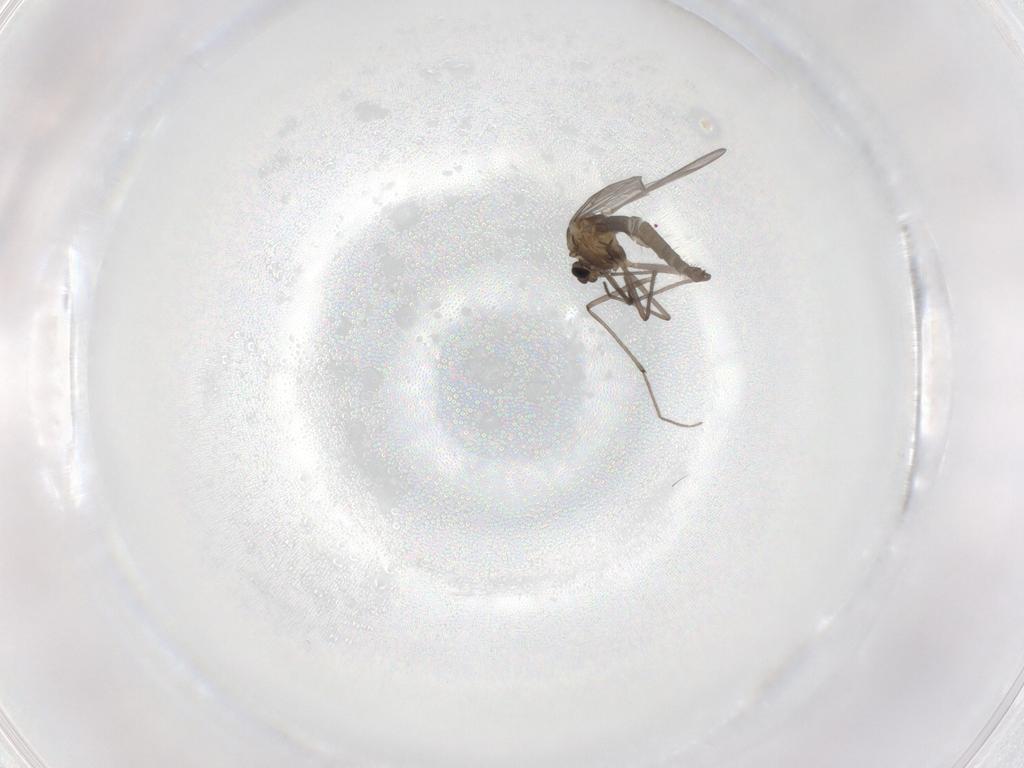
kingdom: Animalia
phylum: Arthropoda
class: Insecta
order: Diptera
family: Chironomidae
